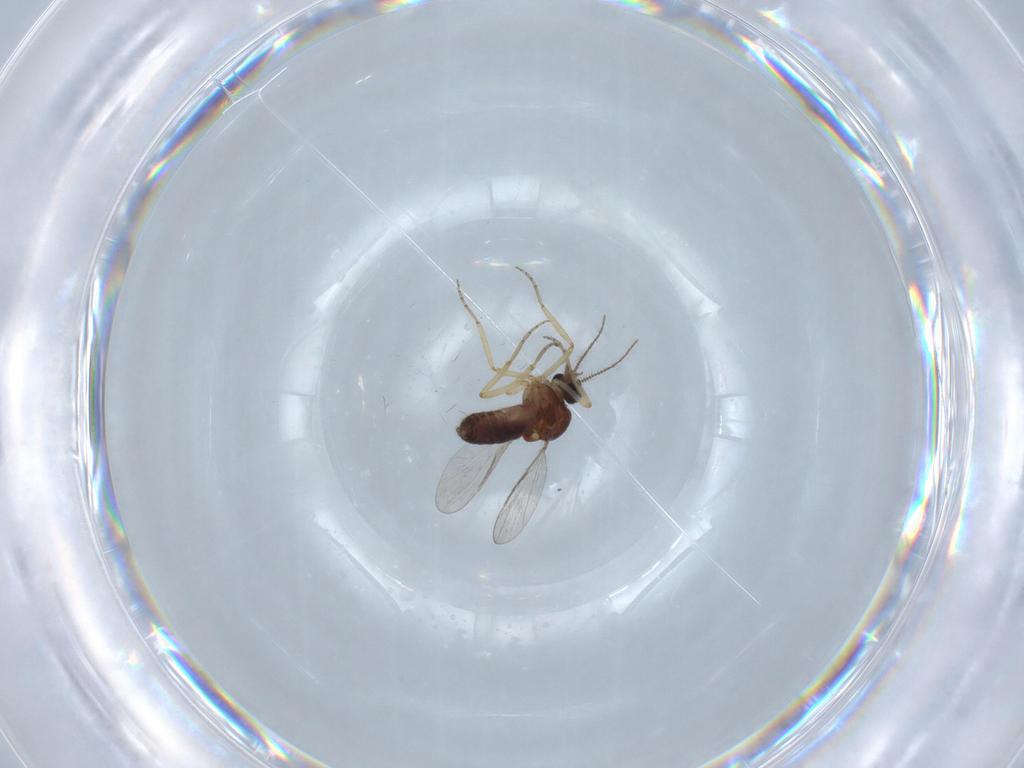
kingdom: Animalia
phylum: Arthropoda
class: Insecta
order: Diptera
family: Ceratopogonidae
